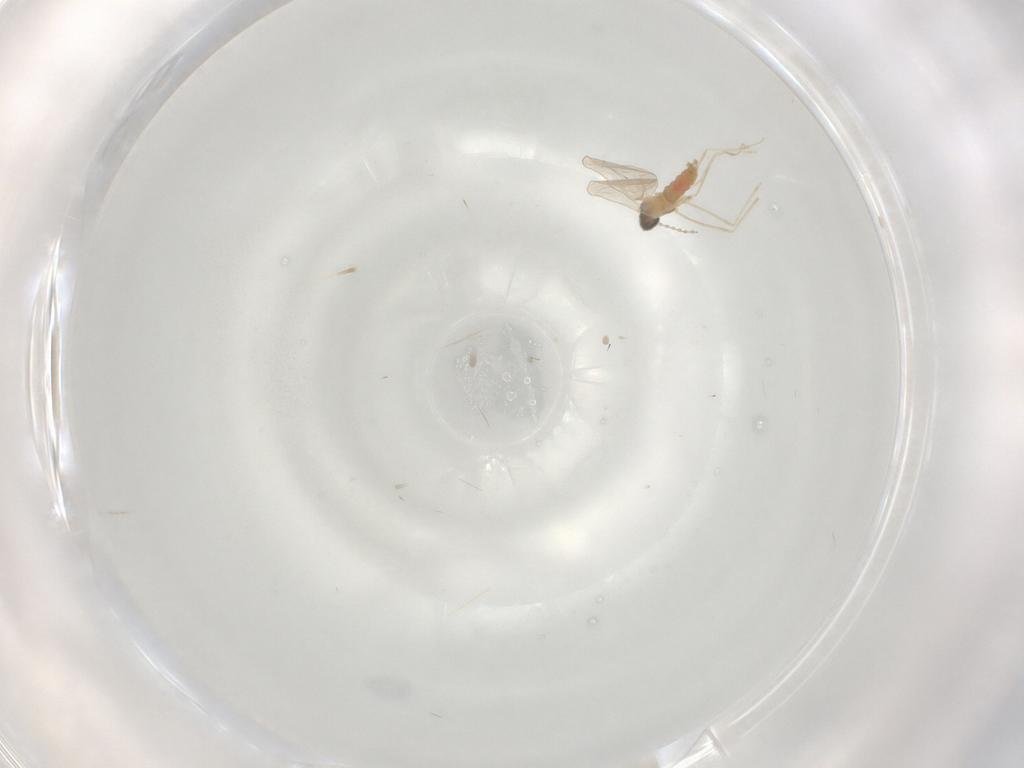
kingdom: Animalia
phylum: Arthropoda
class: Insecta
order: Diptera
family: Cecidomyiidae
